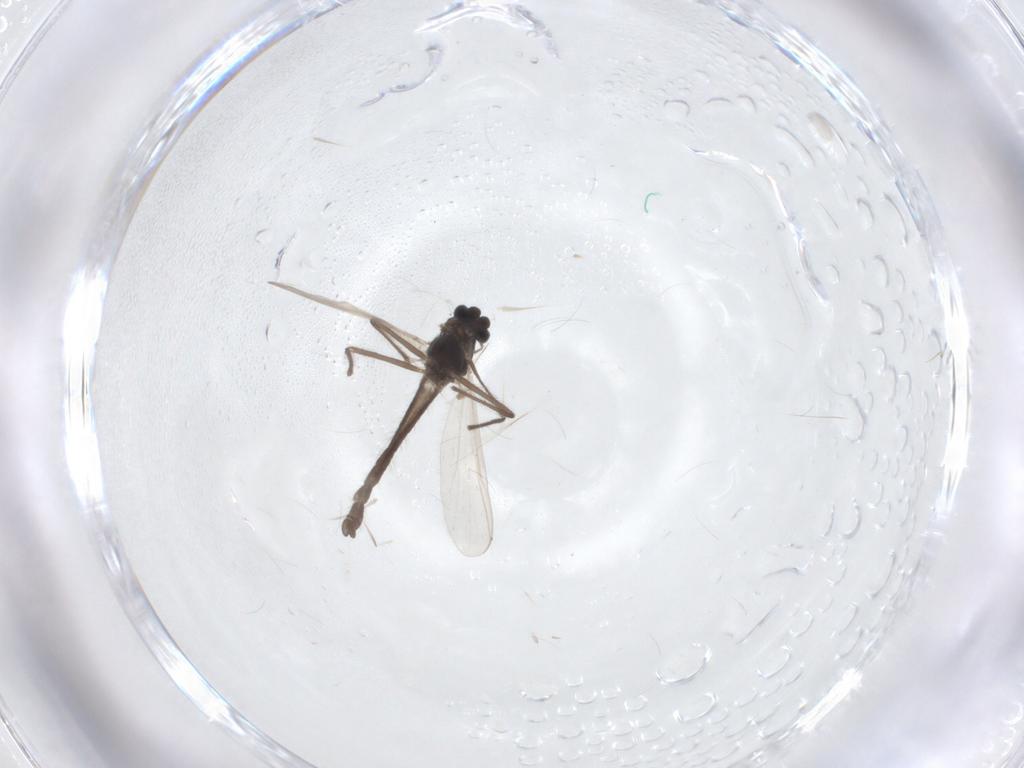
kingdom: Animalia
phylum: Arthropoda
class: Insecta
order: Diptera
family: Chironomidae
